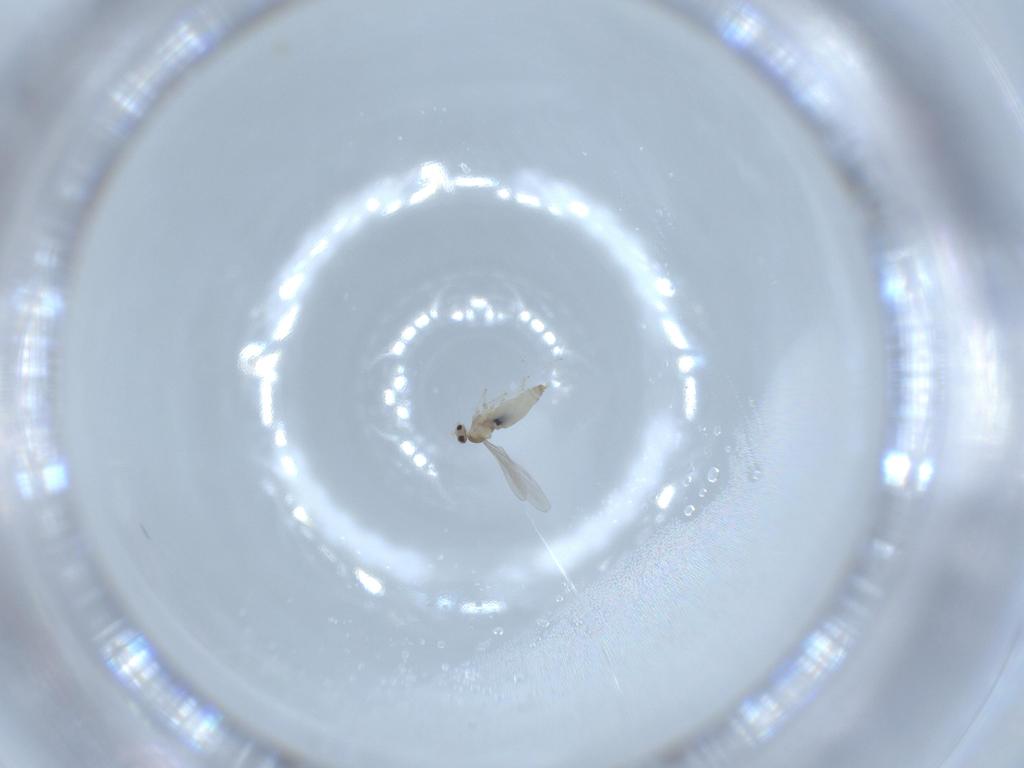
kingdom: Animalia
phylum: Arthropoda
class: Insecta
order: Diptera
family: Cecidomyiidae
